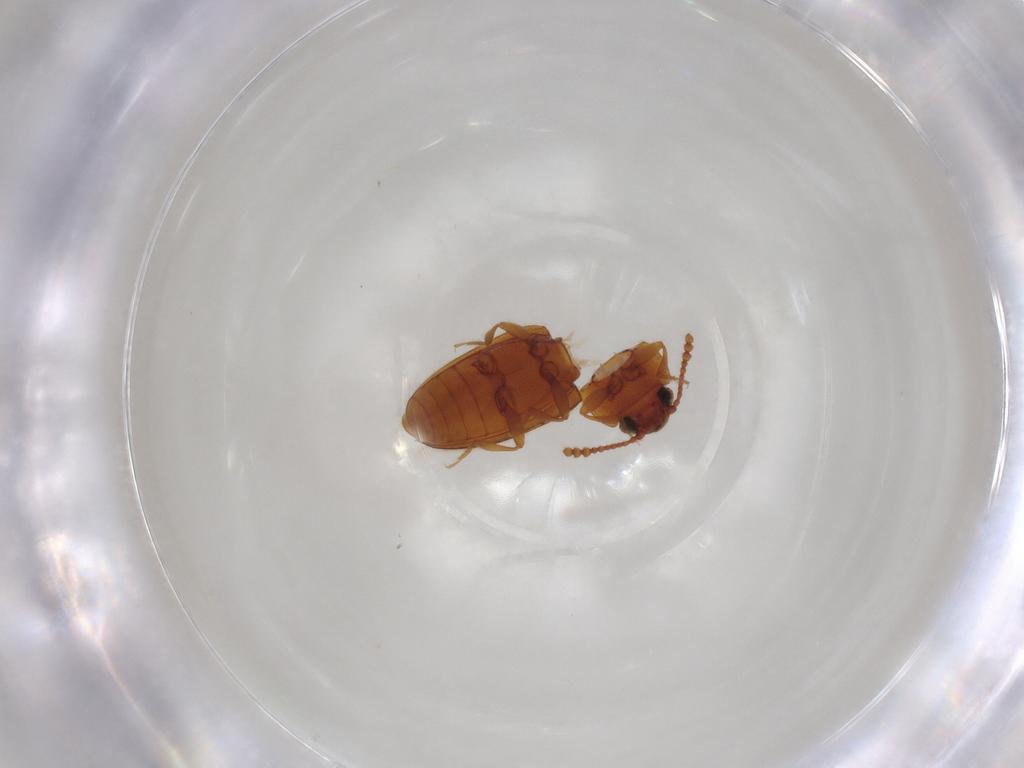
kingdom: Animalia
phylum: Arthropoda
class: Insecta
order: Coleoptera
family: Erotylidae
